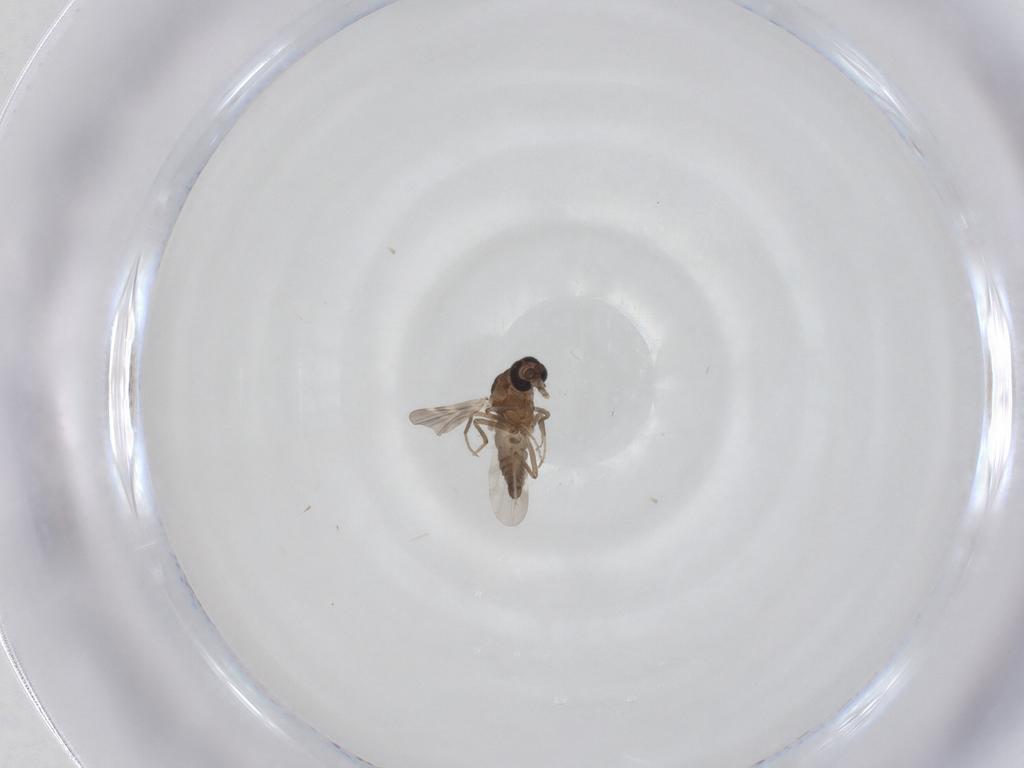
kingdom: Animalia
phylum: Arthropoda
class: Insecta
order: Diptera
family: Ceratopogonidae
